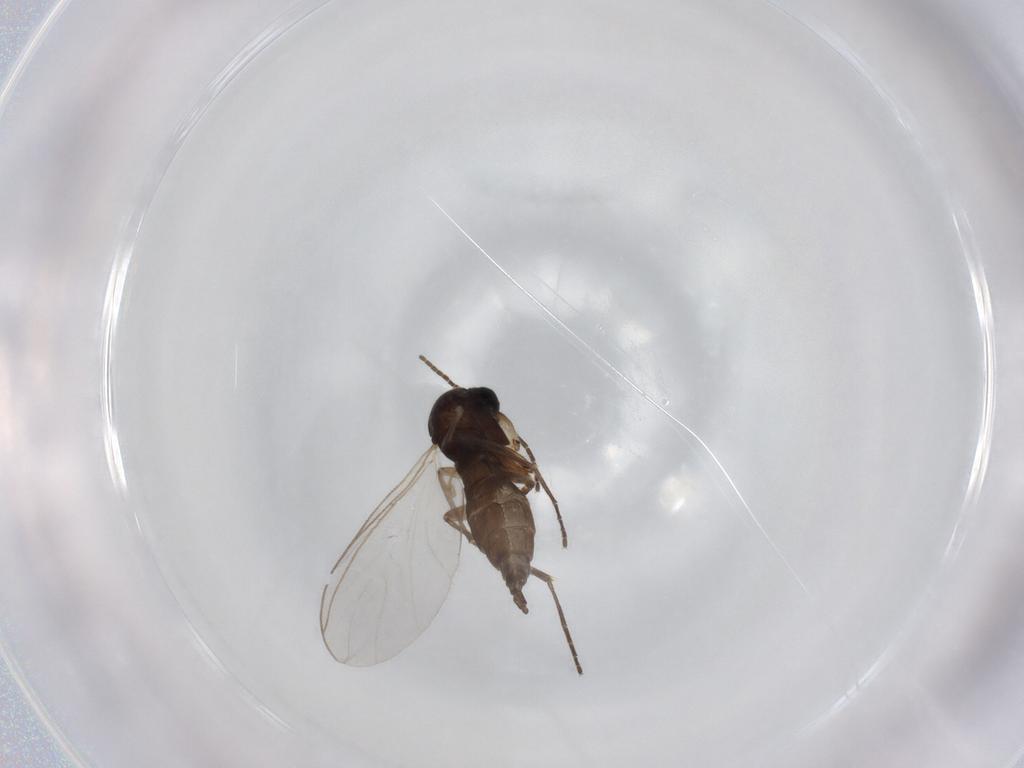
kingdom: Animalia
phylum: Arthropoda
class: Insecta
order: Diptera
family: Sciaridae
